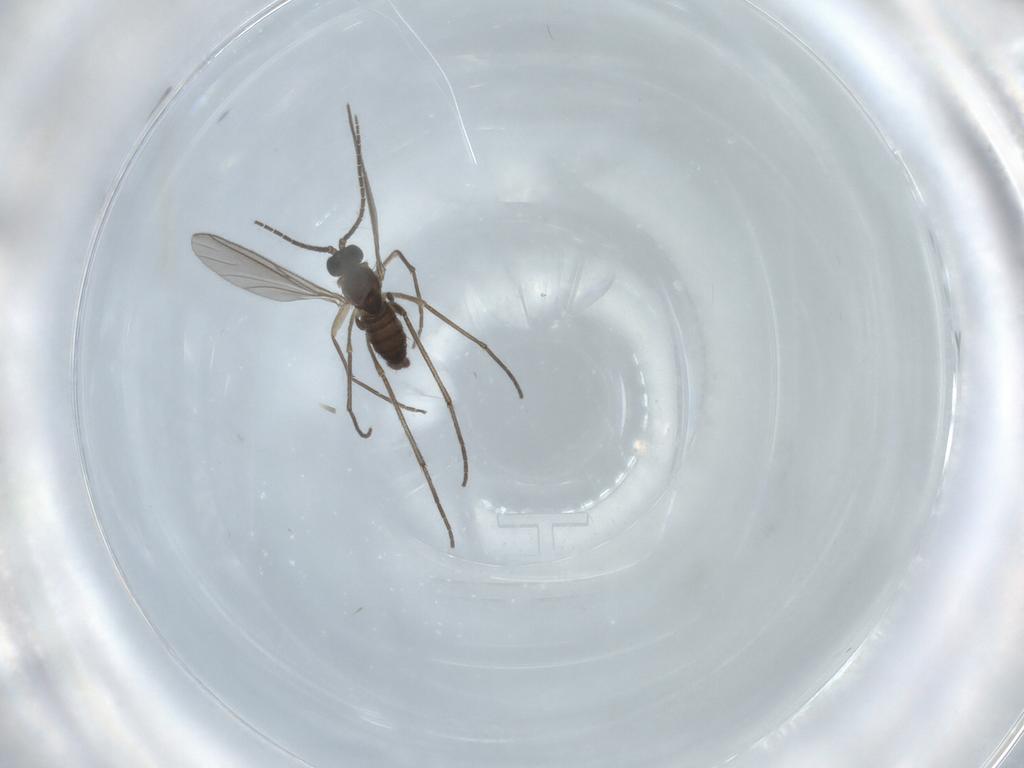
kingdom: Animalia
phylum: Arthropoda
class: Insecta
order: Diptera
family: Sciaridae
